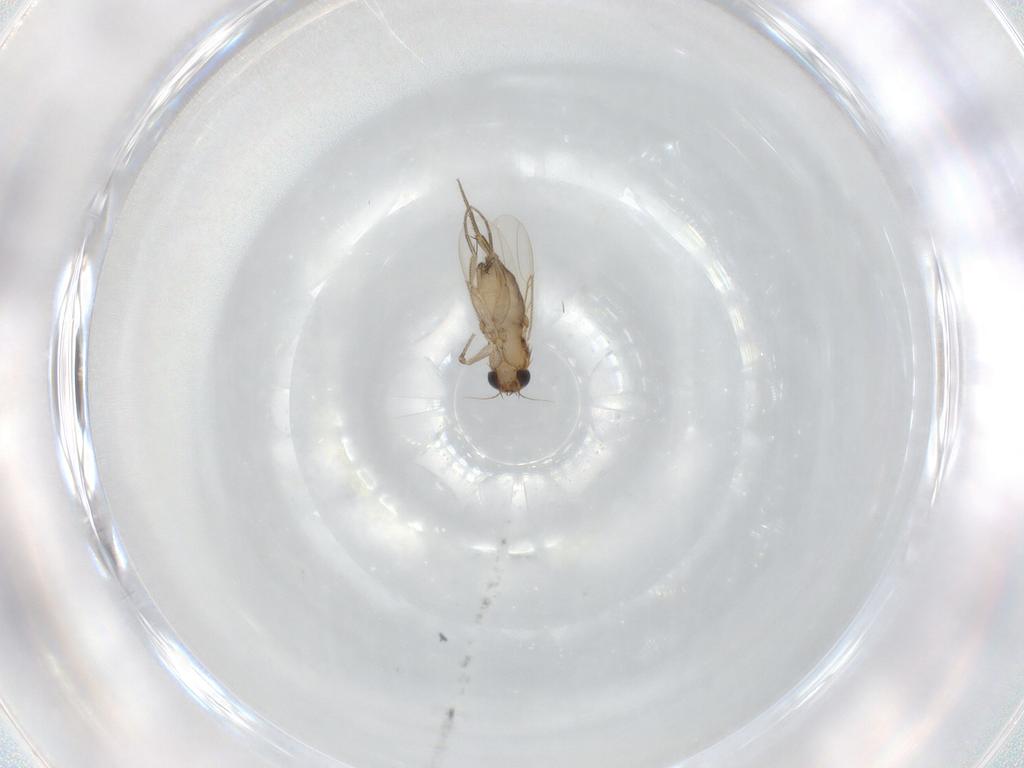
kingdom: Animalia
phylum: Arthropoda
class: Insecta
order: Diptera
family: Phoridae
